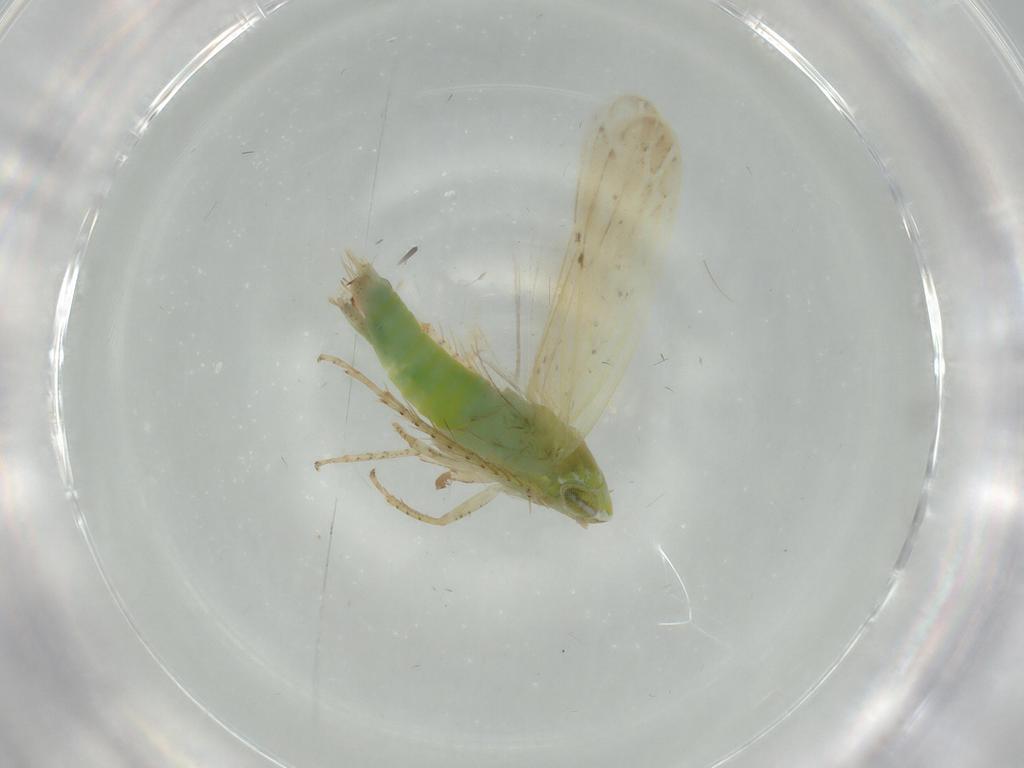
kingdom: Animalia
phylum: Arthropoda
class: Insecta
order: Hemiptera
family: Cicadellidae
